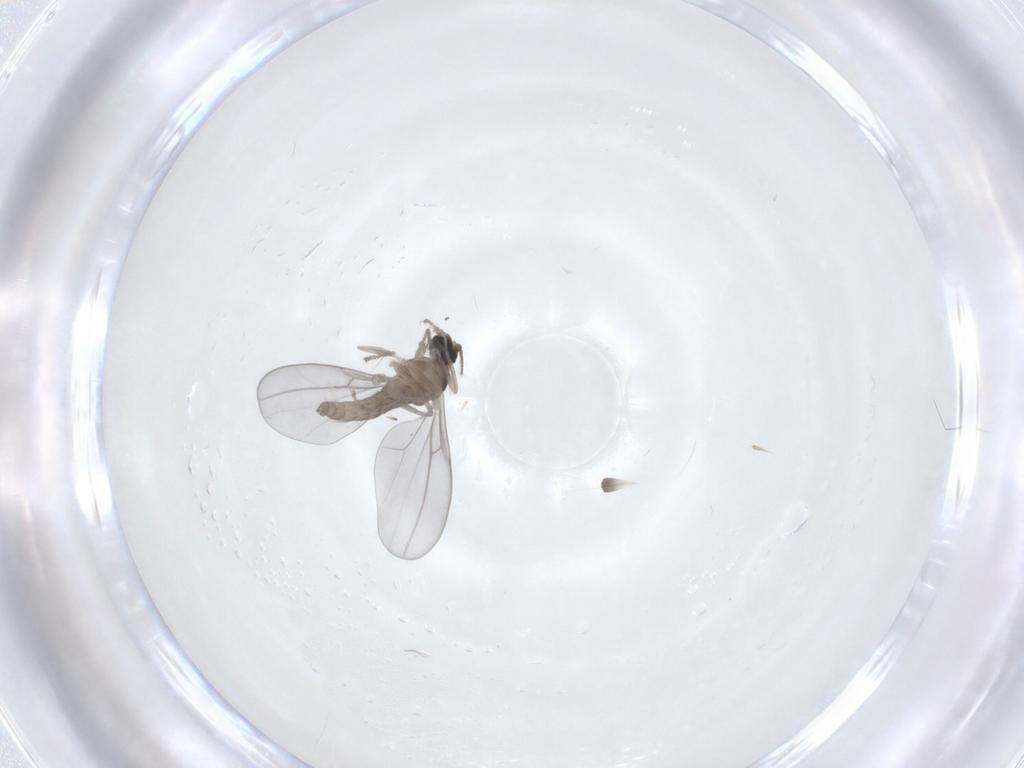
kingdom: Animalia
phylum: Arthropoda
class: Insecta
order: Diptera
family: Cecidomyiidae
